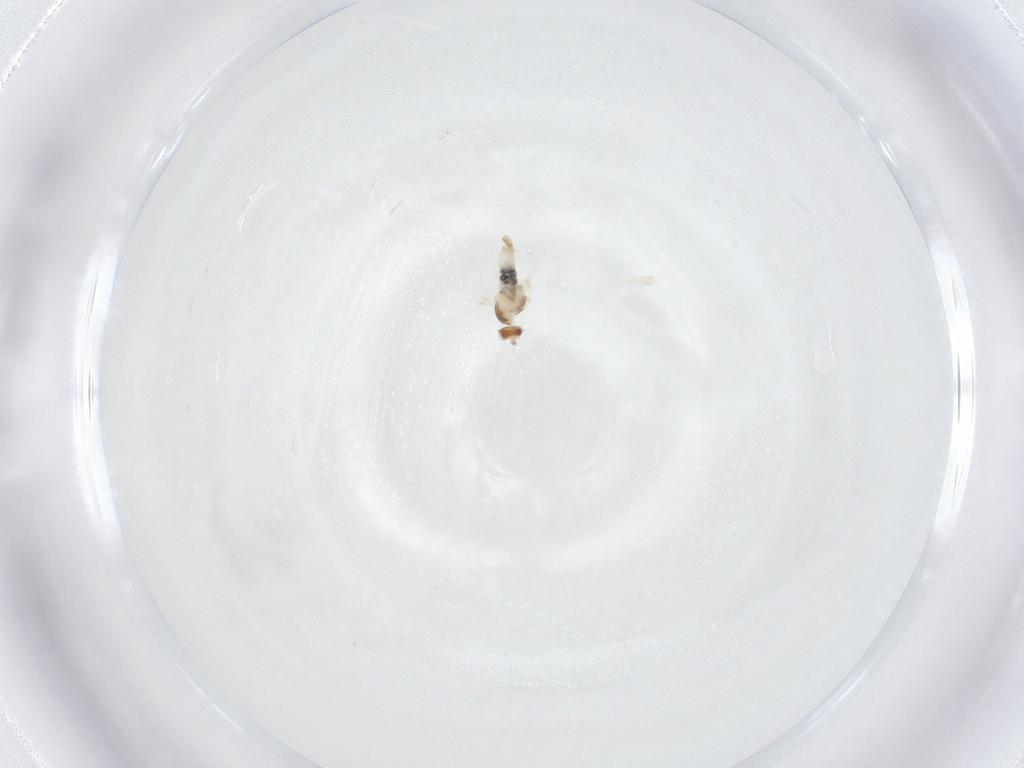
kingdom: Animalia
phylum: Arthropoda
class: Insecta
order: Diptera
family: Cecidomyiidae
